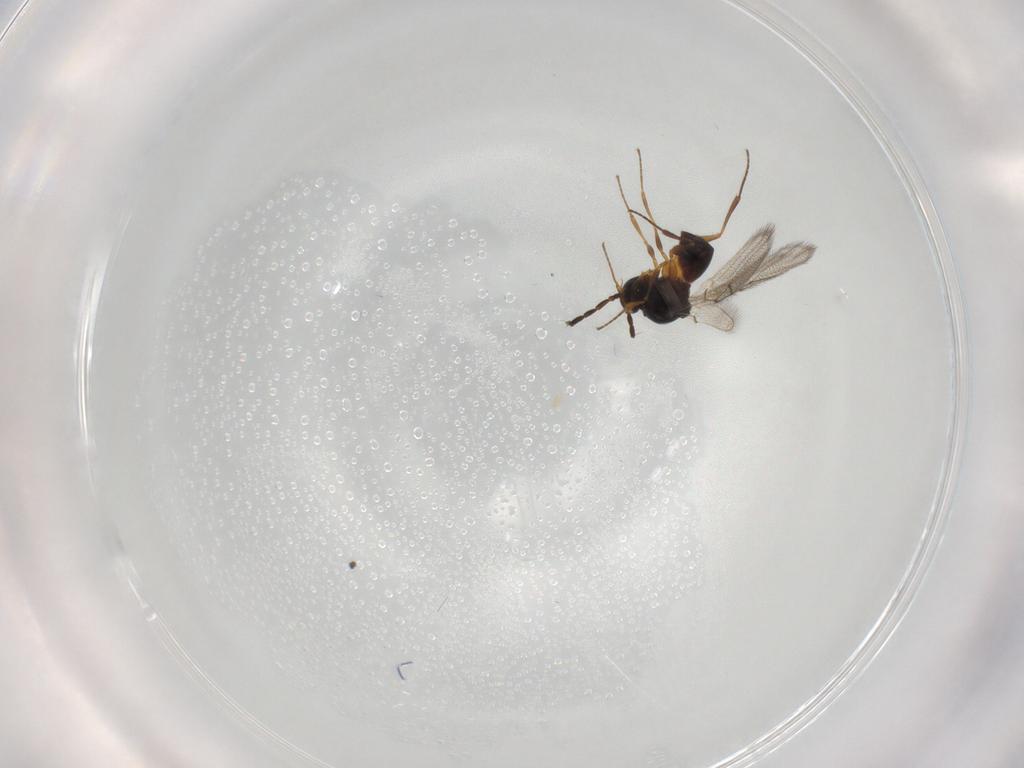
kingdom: Animalia
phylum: Arthropoda
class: Insecta
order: Hymenoptera
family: Figitidae
